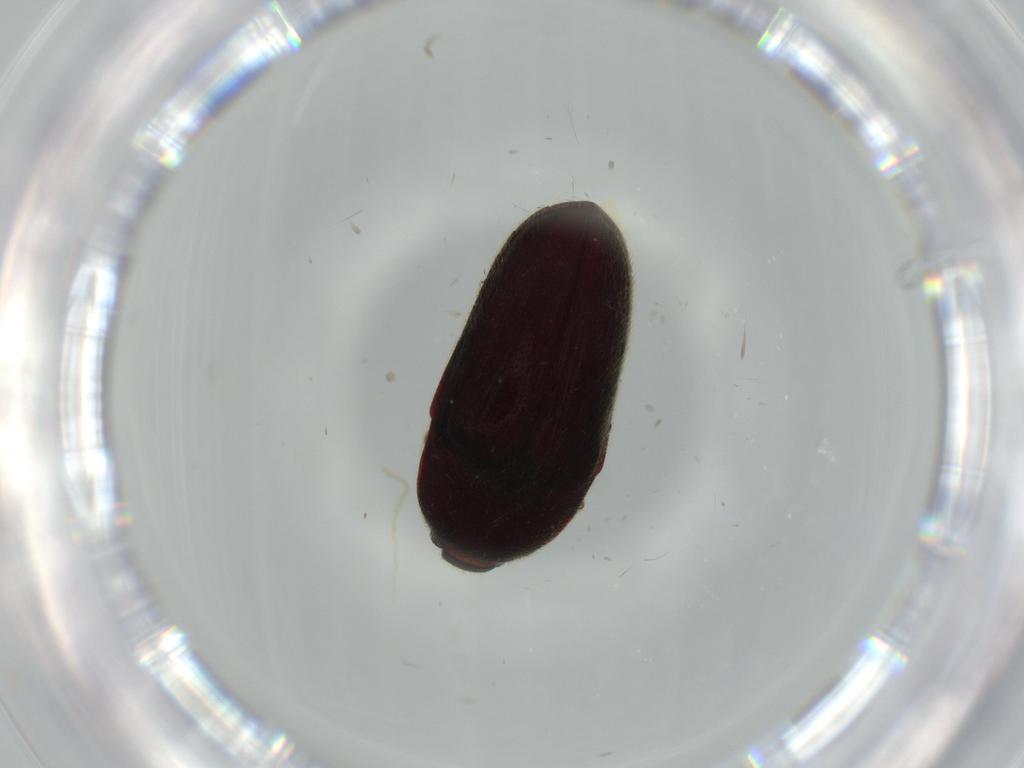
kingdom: Animalia
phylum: Arthropoda
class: Insecta
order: Coleoptera
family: Throscidae
